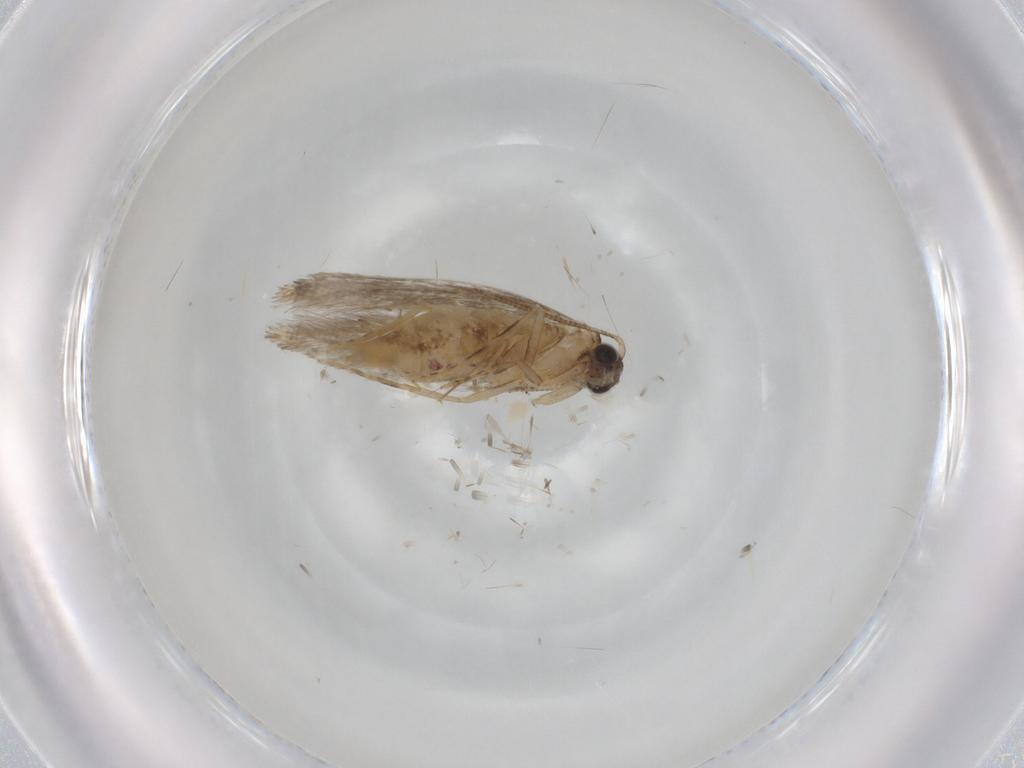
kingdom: Animalia
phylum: Arthropoda
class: Insecta
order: Lepidoptera
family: Tineidae
